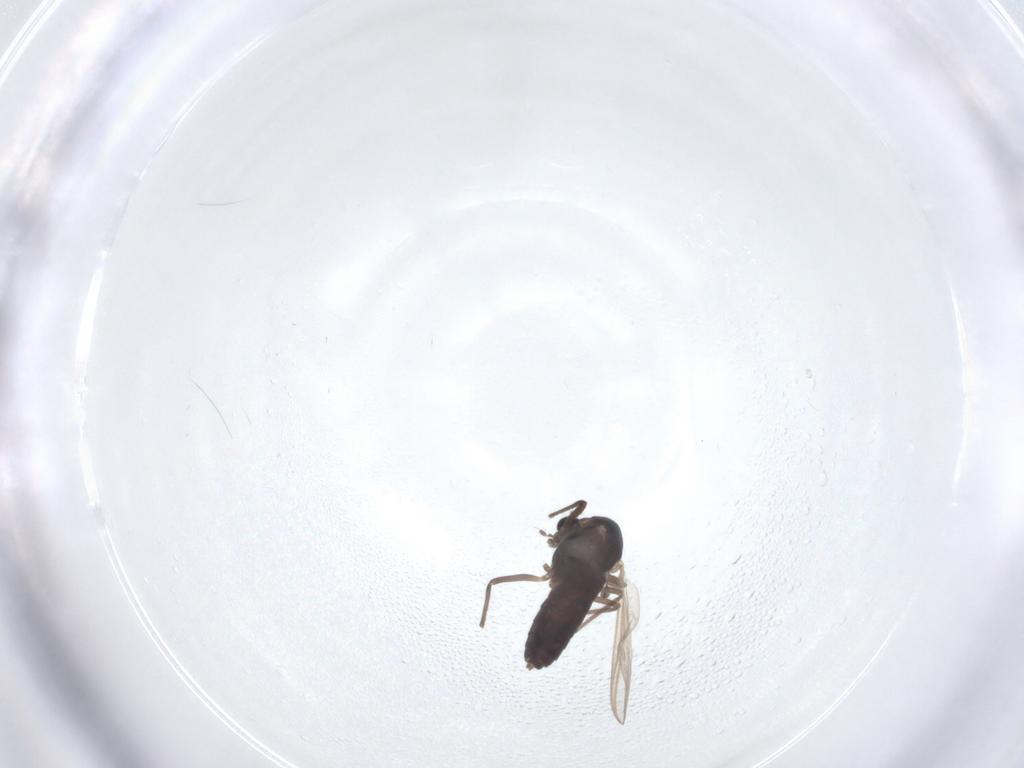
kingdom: Animalia
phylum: Arthropoda
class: Insecta
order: Diptera
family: Chironomidae
